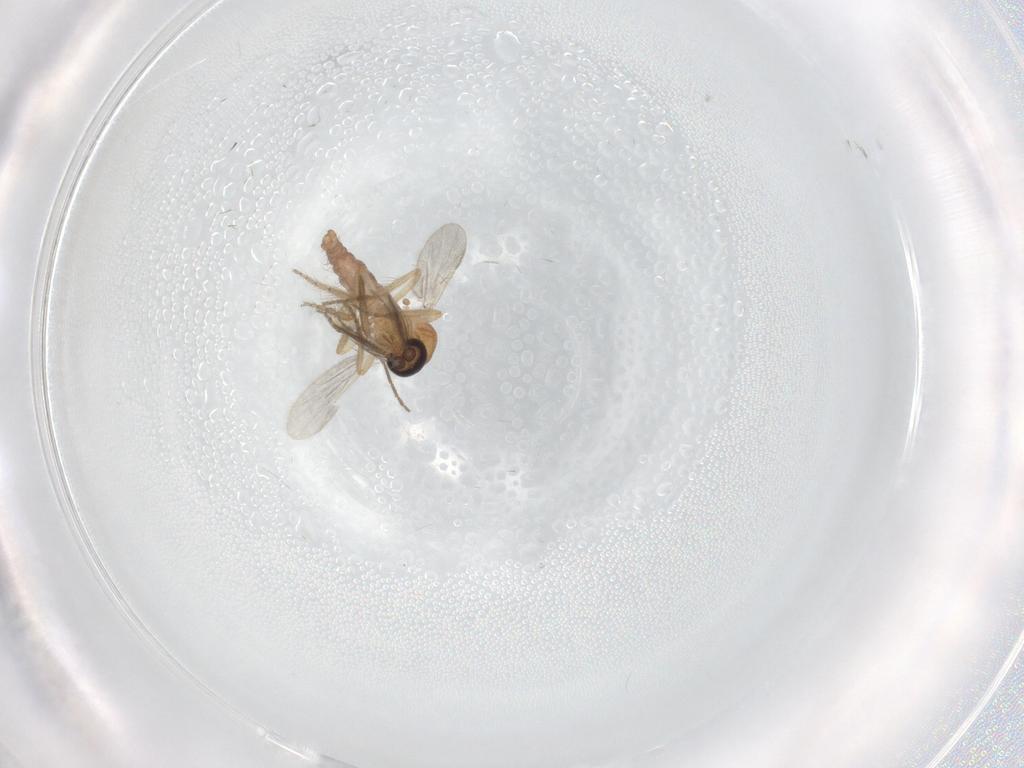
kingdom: Animalia
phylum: Arthropoda
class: Insecta
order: Diptera
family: Ceratopogonidae
